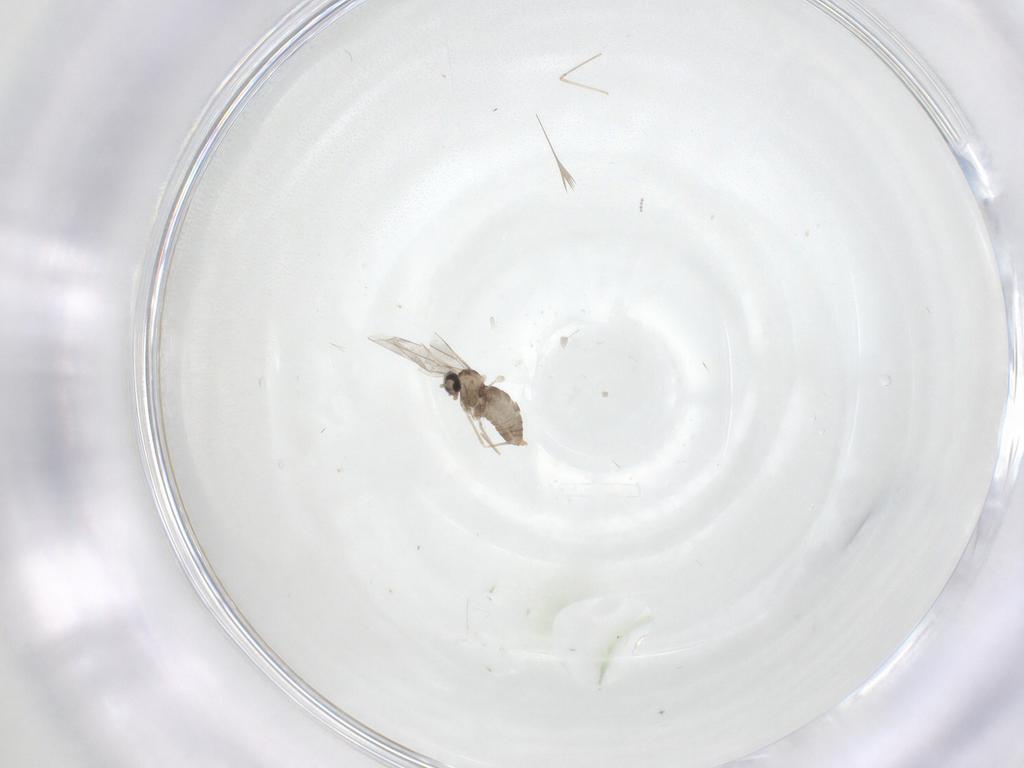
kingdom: Animalia
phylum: Arthropoda
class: Insecta
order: Diptera
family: Cecidomyiidae
